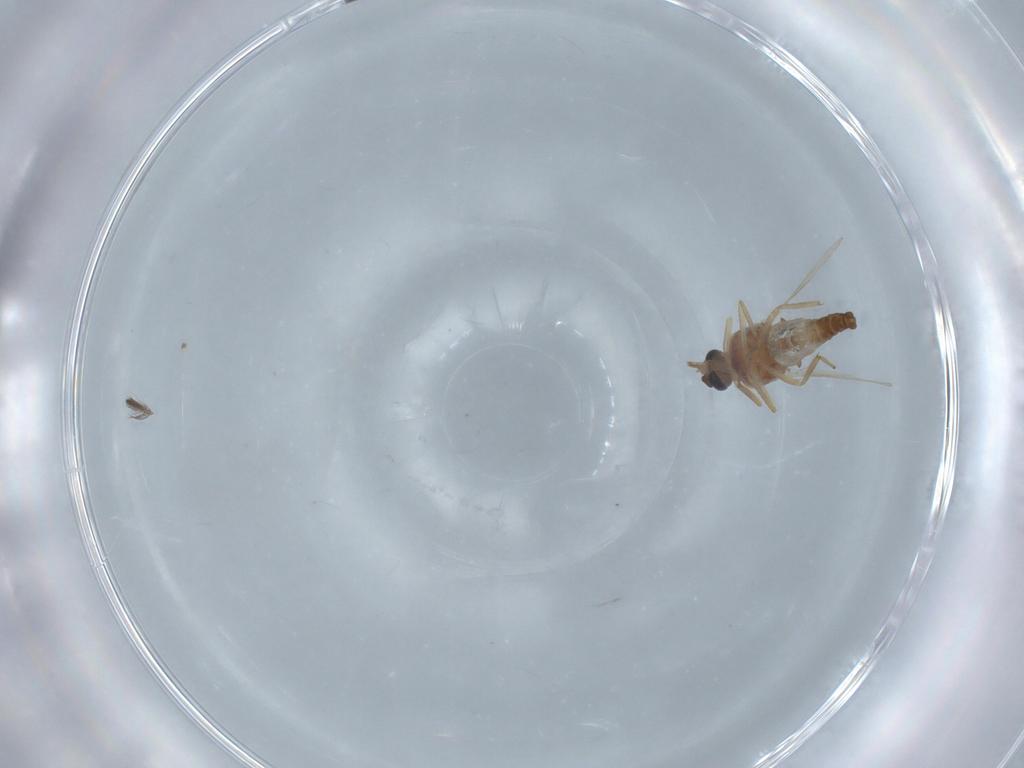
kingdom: Animalia
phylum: Arthropoda
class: Insecta
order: Diptera
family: Ceratopogonidae
